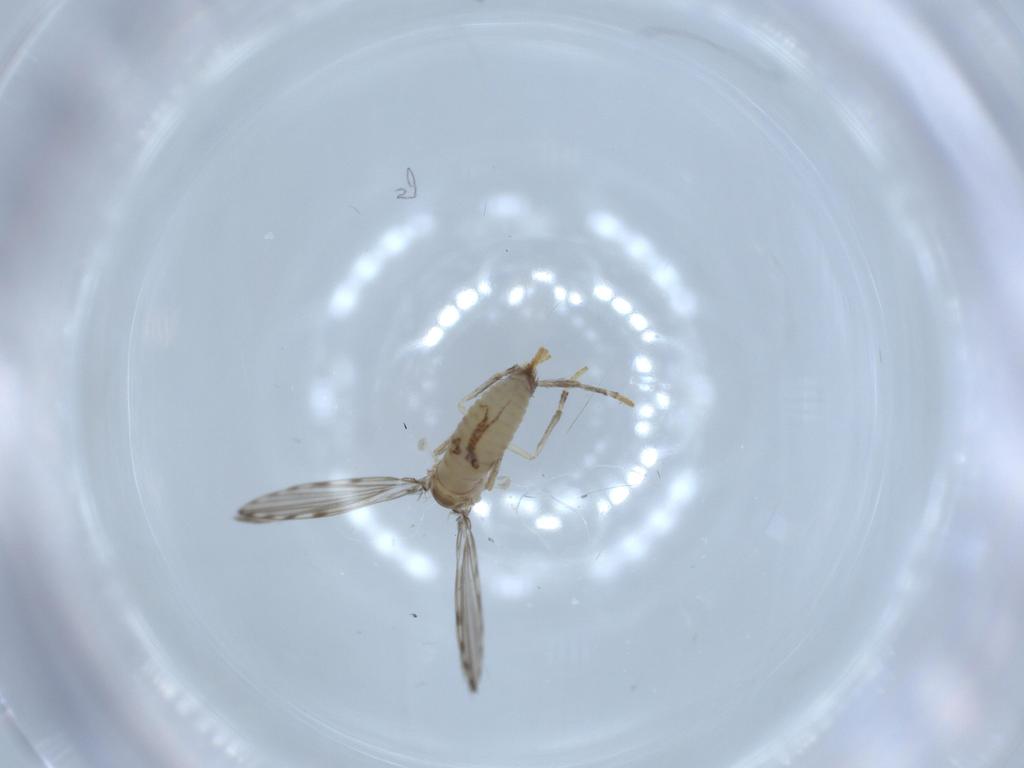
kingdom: Animalia
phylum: Arthropoda
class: Insecta
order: Diptera
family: Psychodidae
